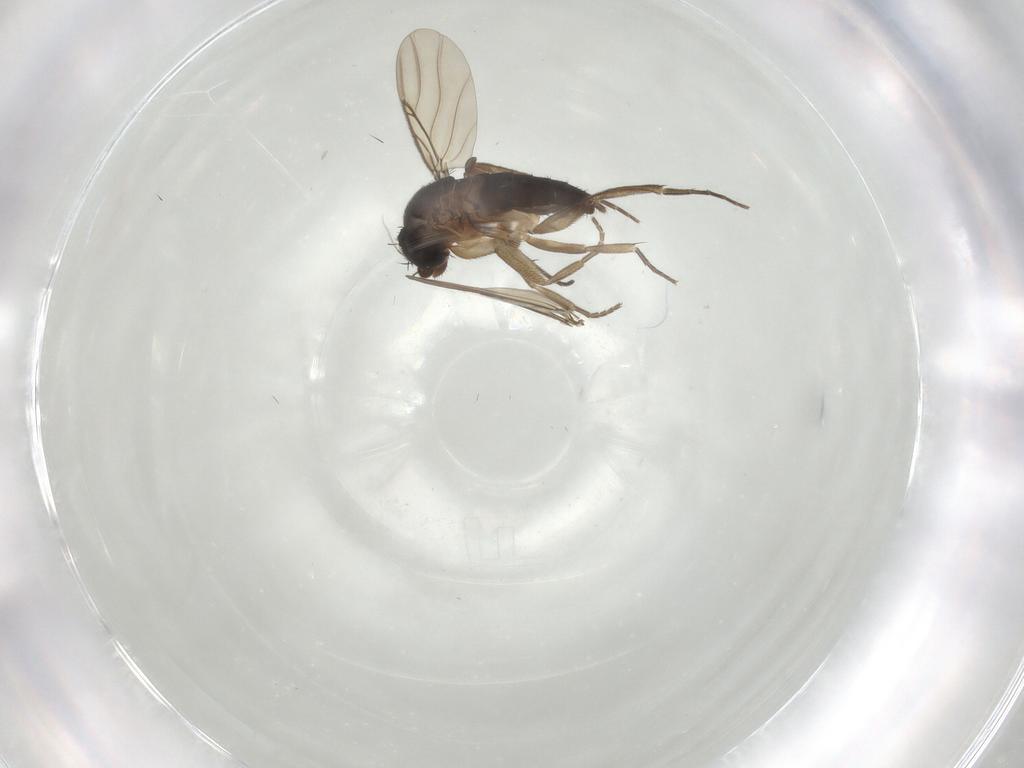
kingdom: Animalia
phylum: Arthropoda
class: Insecta
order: Diptera
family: Phoridae
